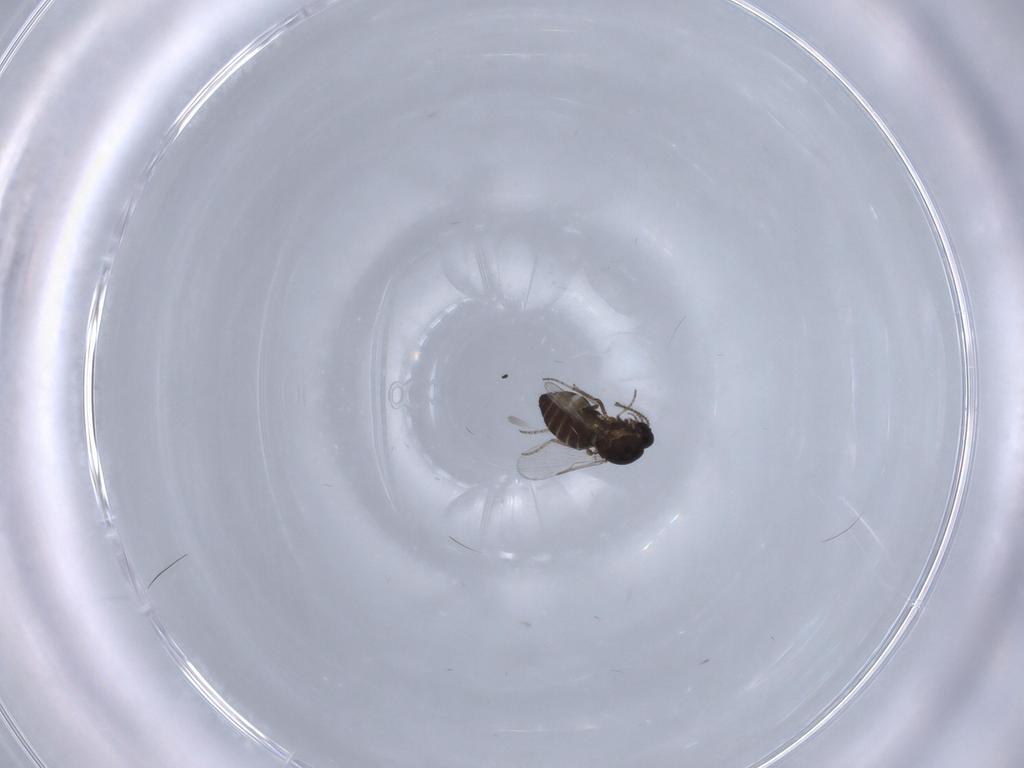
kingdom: Animalia
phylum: Arthropoda
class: Insecta
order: Diptera
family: Ceratopogonidae
